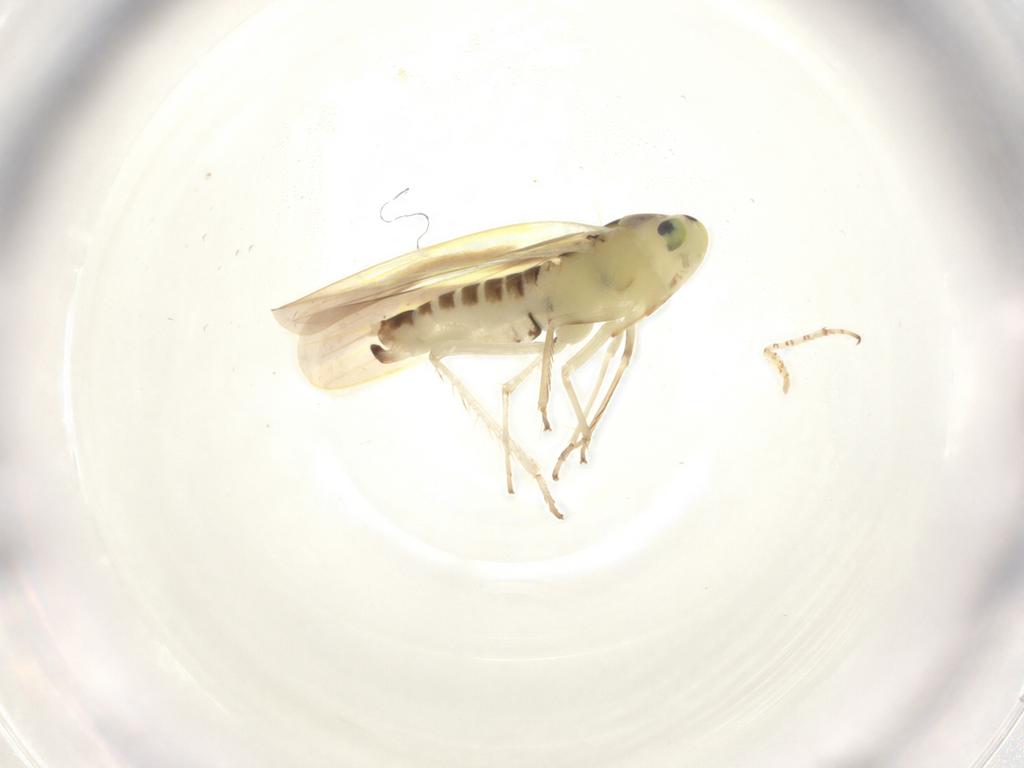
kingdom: Animalia
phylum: Arthropoda
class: Insecta
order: Hemiptera
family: Cicadellidae
